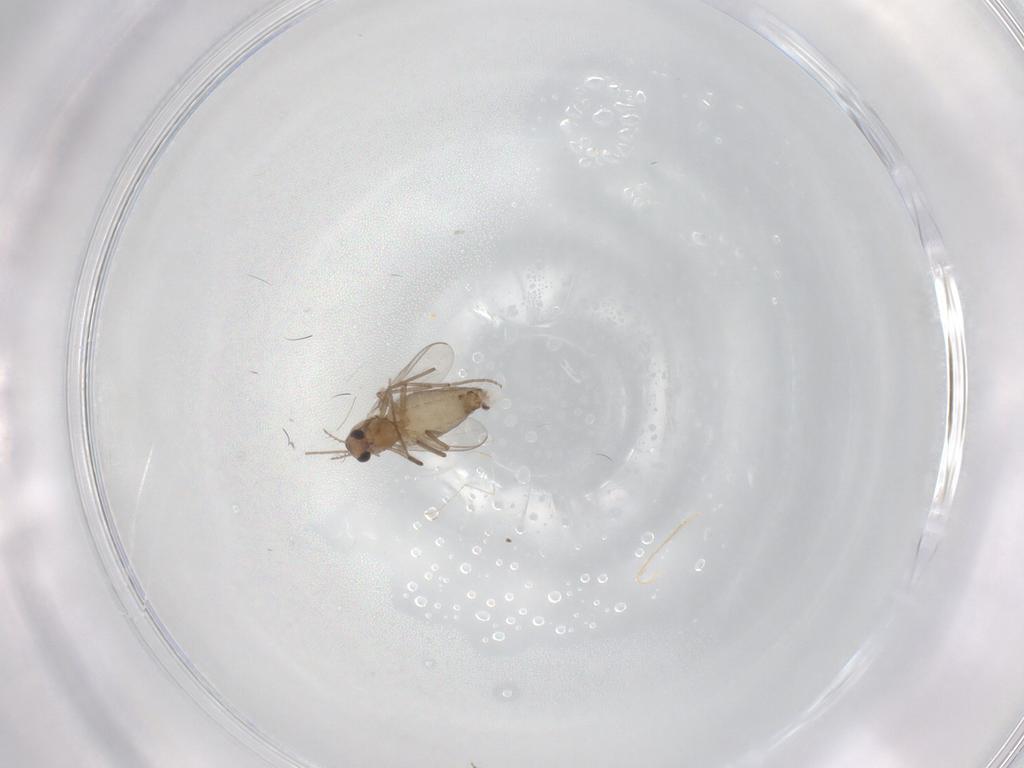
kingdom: Animalia
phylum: Arthropoda
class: Insecta
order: Diptera
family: Chironomidae
